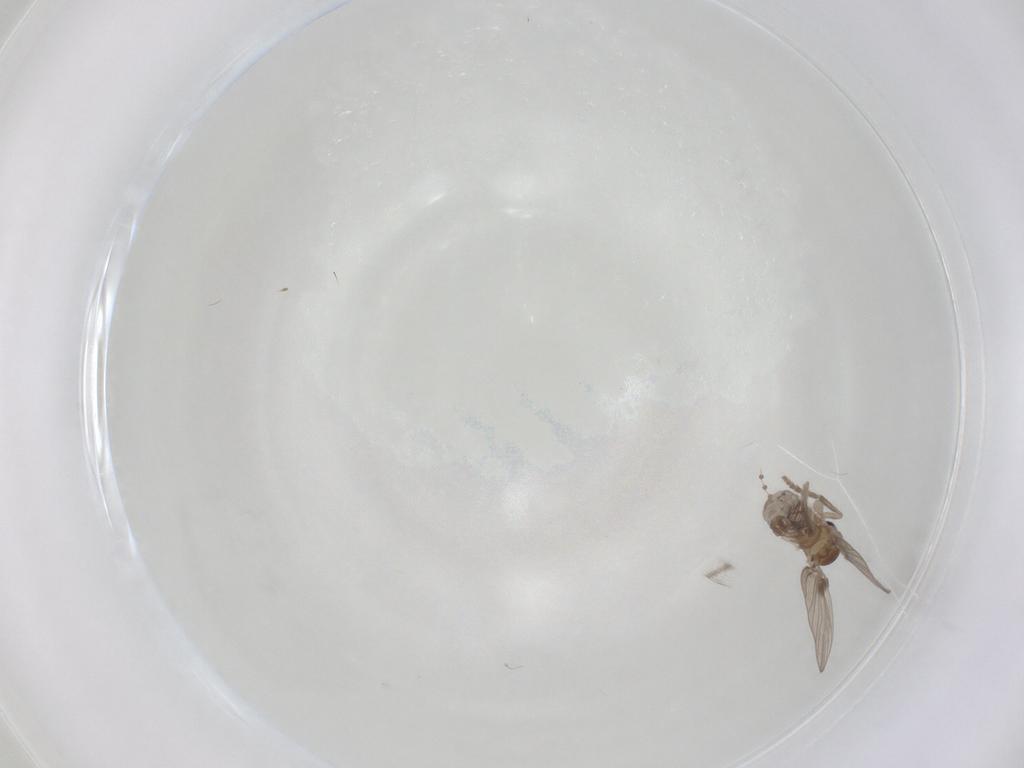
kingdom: Animalia
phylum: Arthropoda
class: Insecta
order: Diptera
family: Psychodidae
